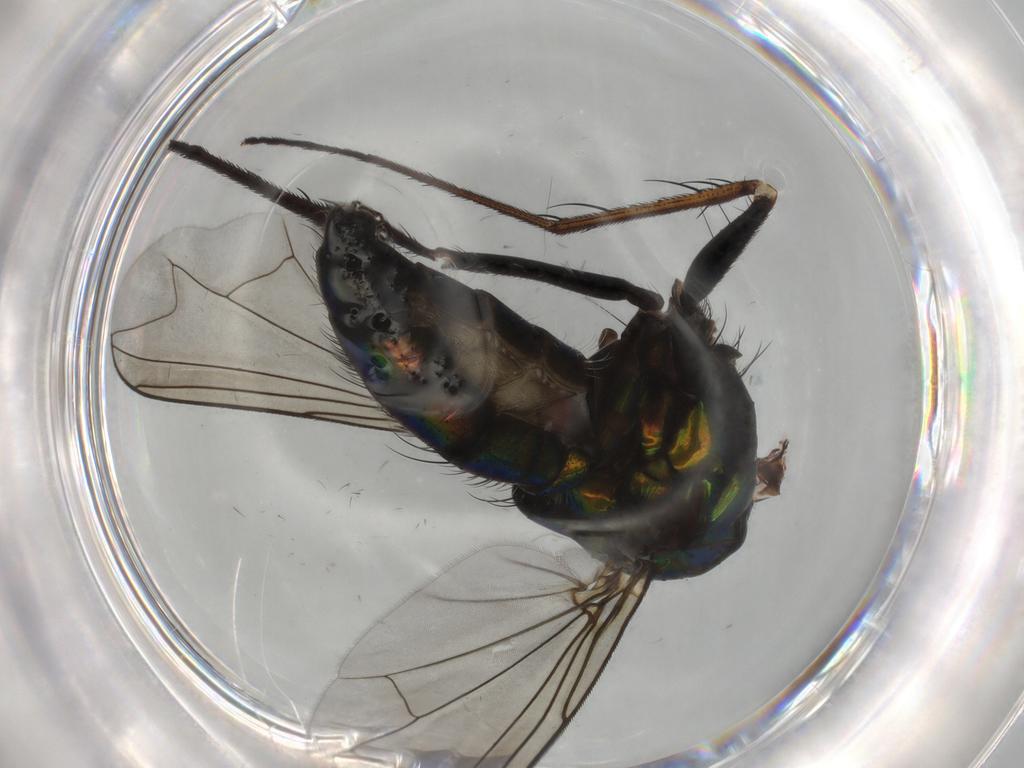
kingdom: Animalia
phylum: Arthropoda
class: Insecta
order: Diptera
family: Dolichopodidae
